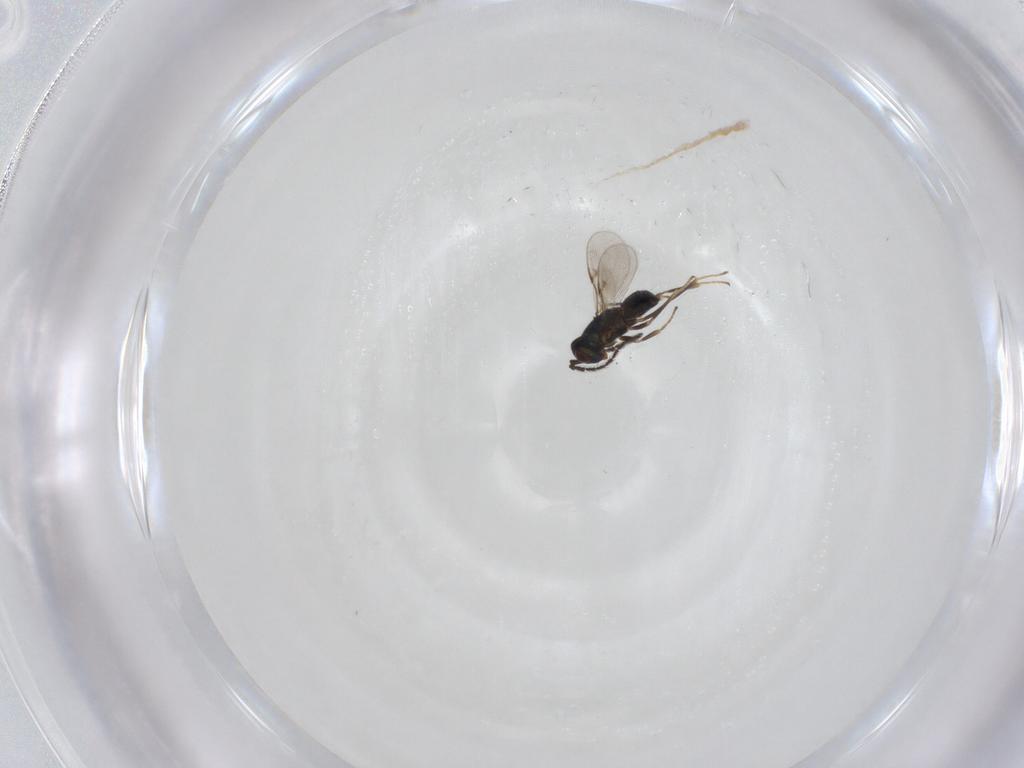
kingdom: Animalia
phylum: Arthropoda
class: Insecta
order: Hymenoptera
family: Encyrtidae
